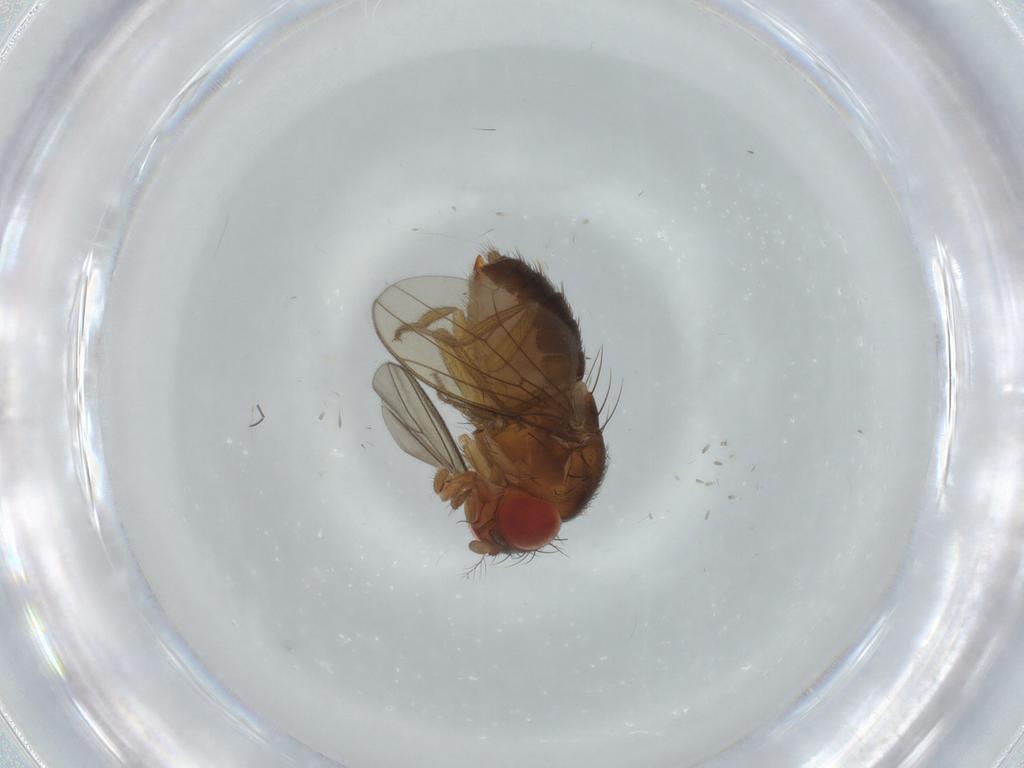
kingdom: Animalia
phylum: Arthropoda
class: Insecta
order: Diptera
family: Drosophilidae
